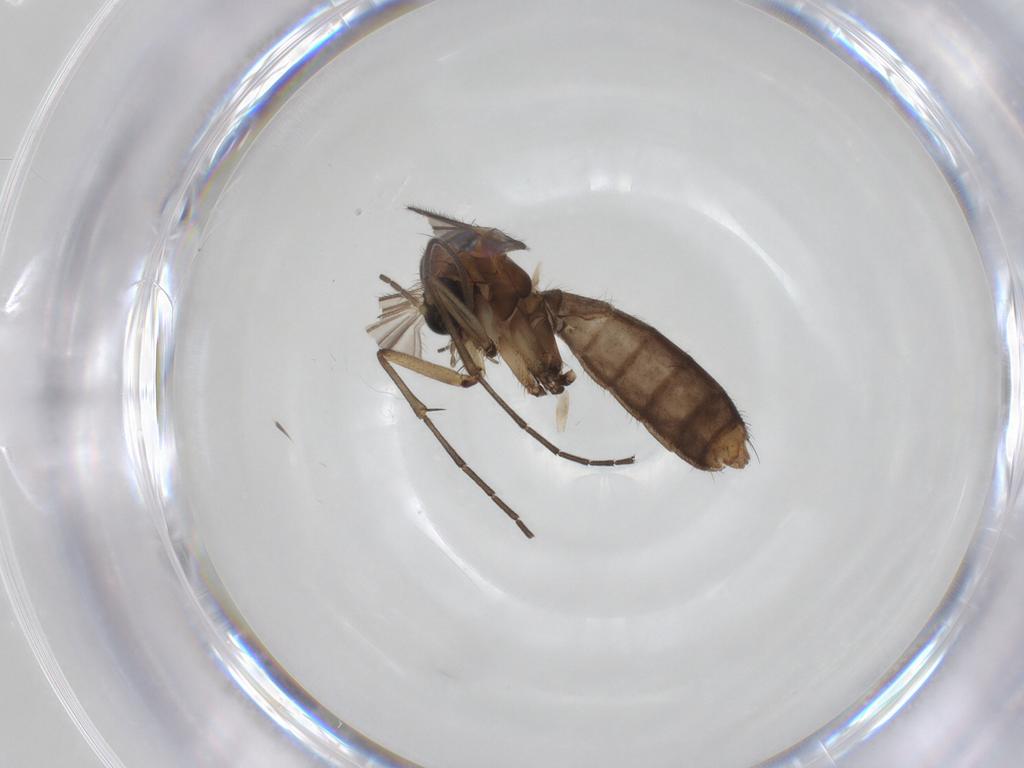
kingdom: Animalia
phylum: Arthropoda
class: Insecta
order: Diptera
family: Mycetophilidae
